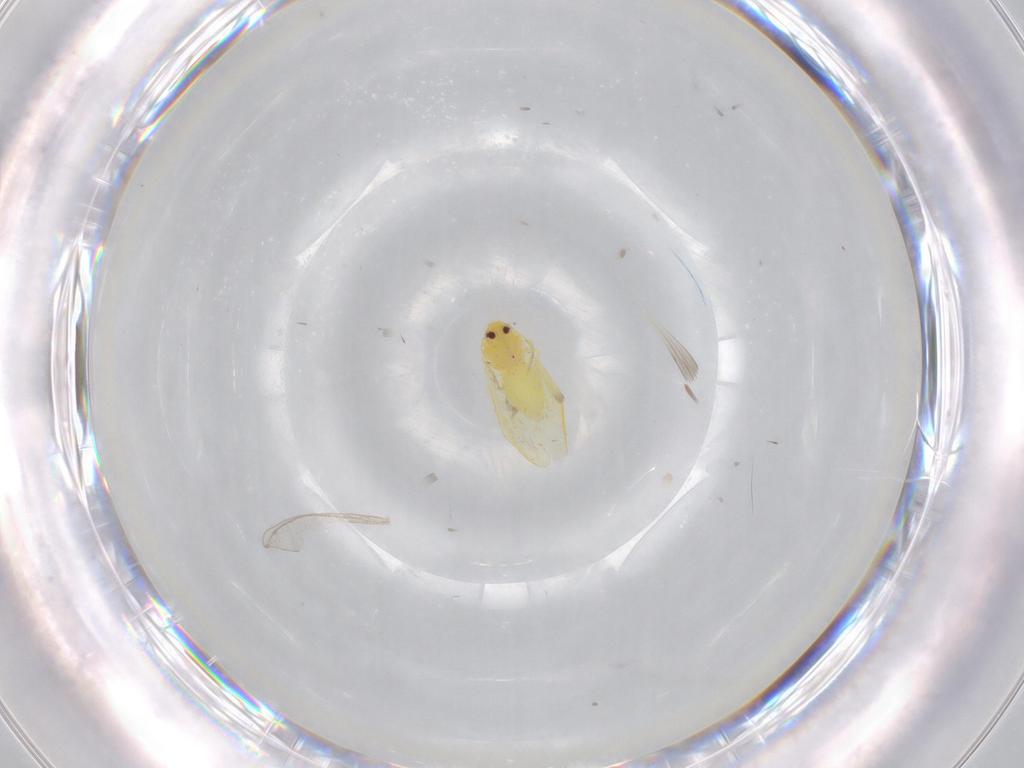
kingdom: Animalia
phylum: Arthropoda
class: Insecta
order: Hemiptera
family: Aleyrodidae
